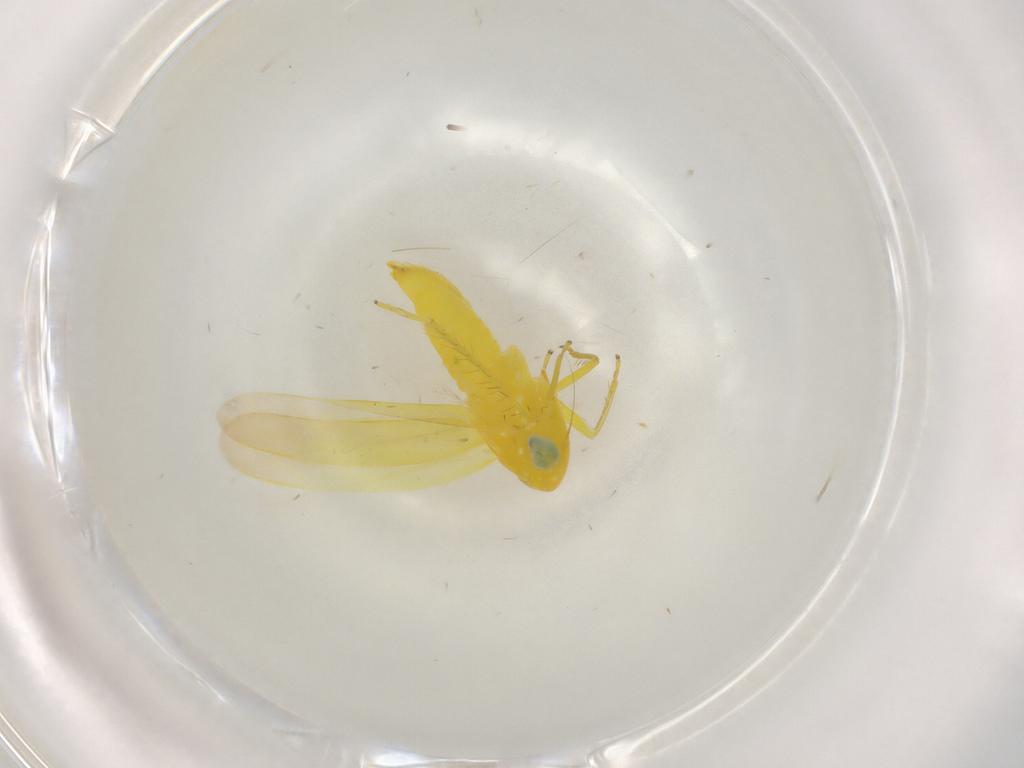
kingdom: Animalia
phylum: Arthropoda
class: Insecta
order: Hemiptera
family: Cicadellidae
